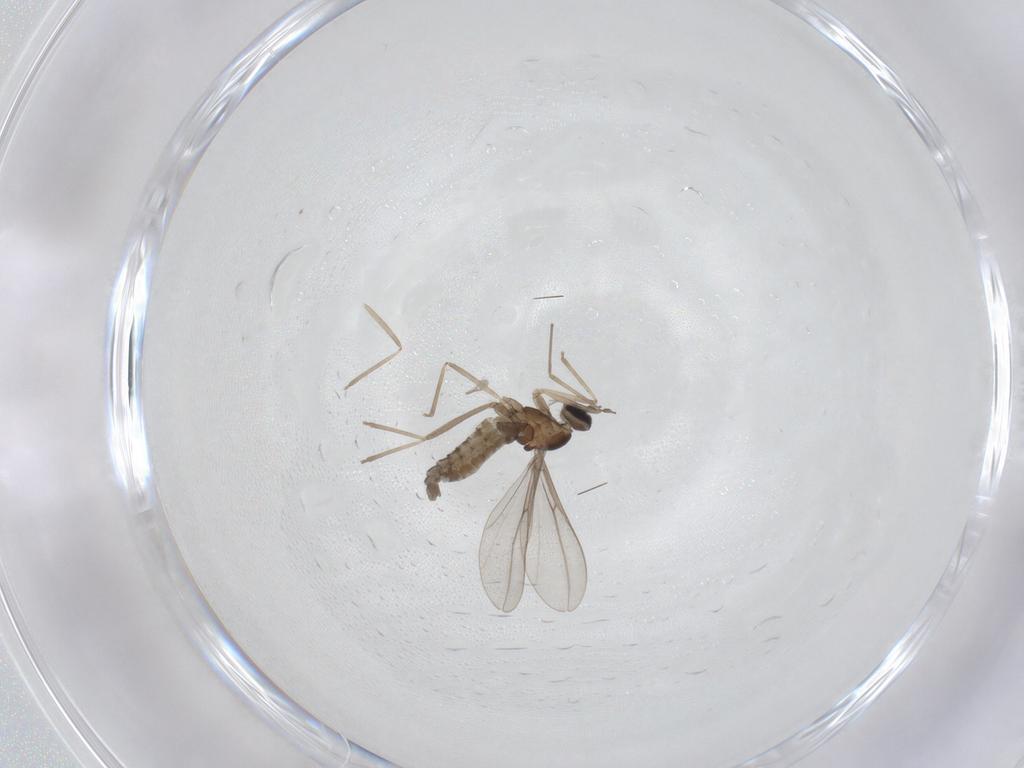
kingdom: Animalia
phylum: Arthropoda
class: Insecta
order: Diptera
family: Cecidomyiidae
